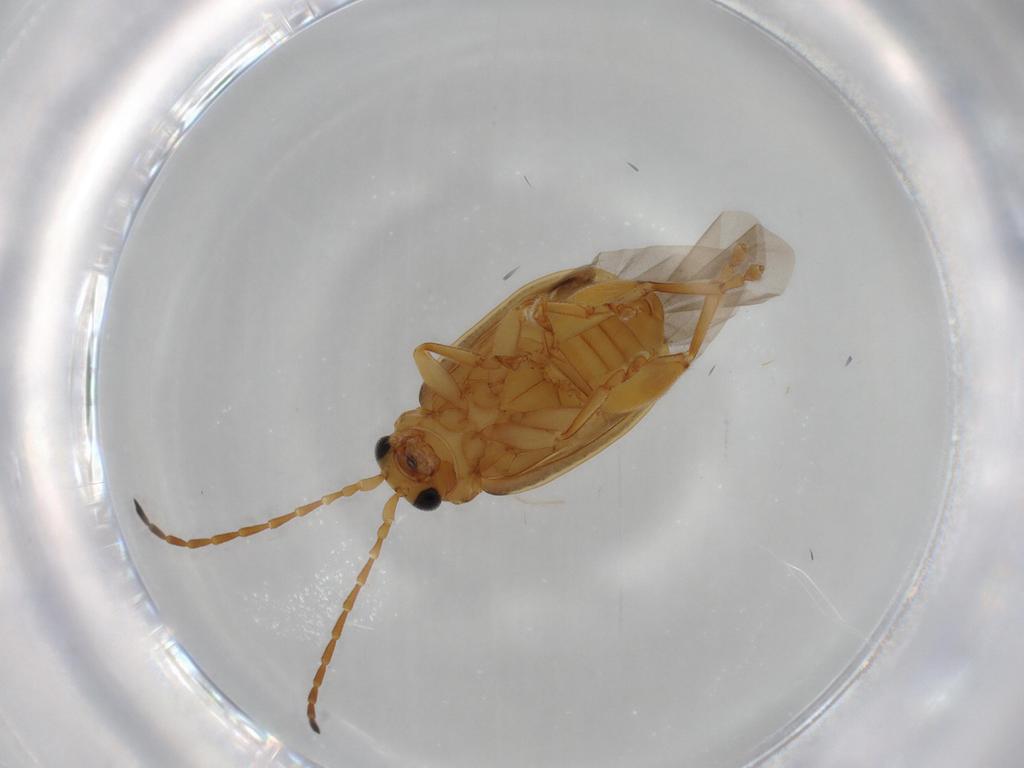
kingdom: Animalia
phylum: Arthropoda
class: Insecta
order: Coleoptera
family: Chrysomelidae
